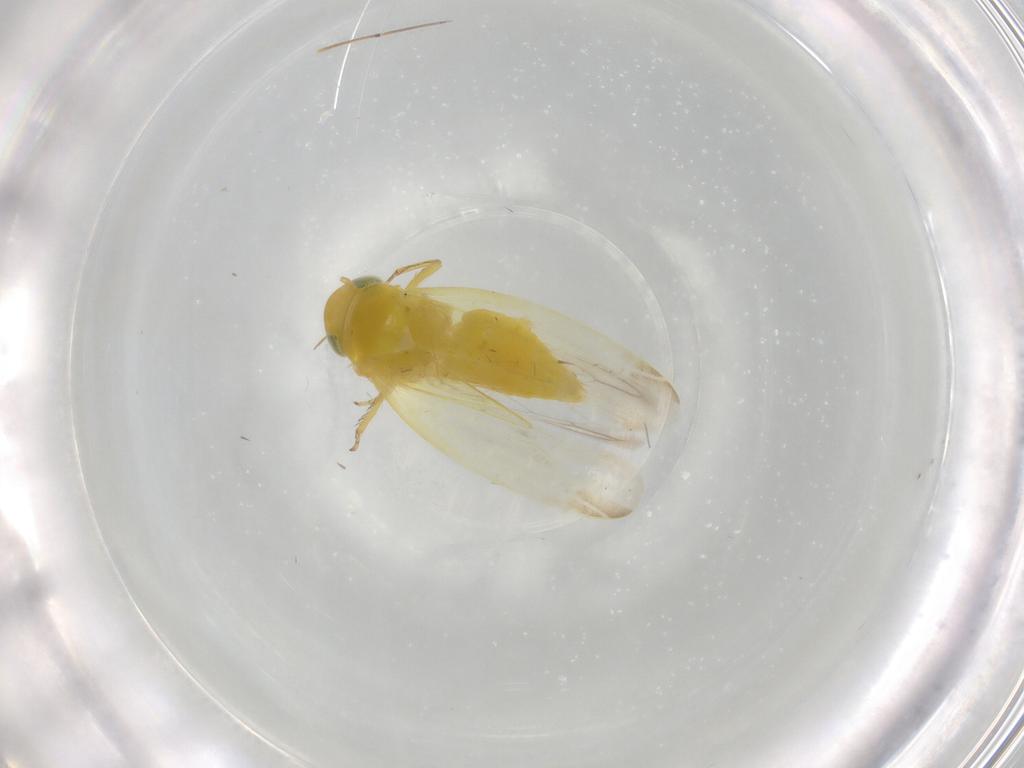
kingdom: Animalia
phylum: Arthropoda
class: Insecta
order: Hemiptera
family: Cicadellidae
